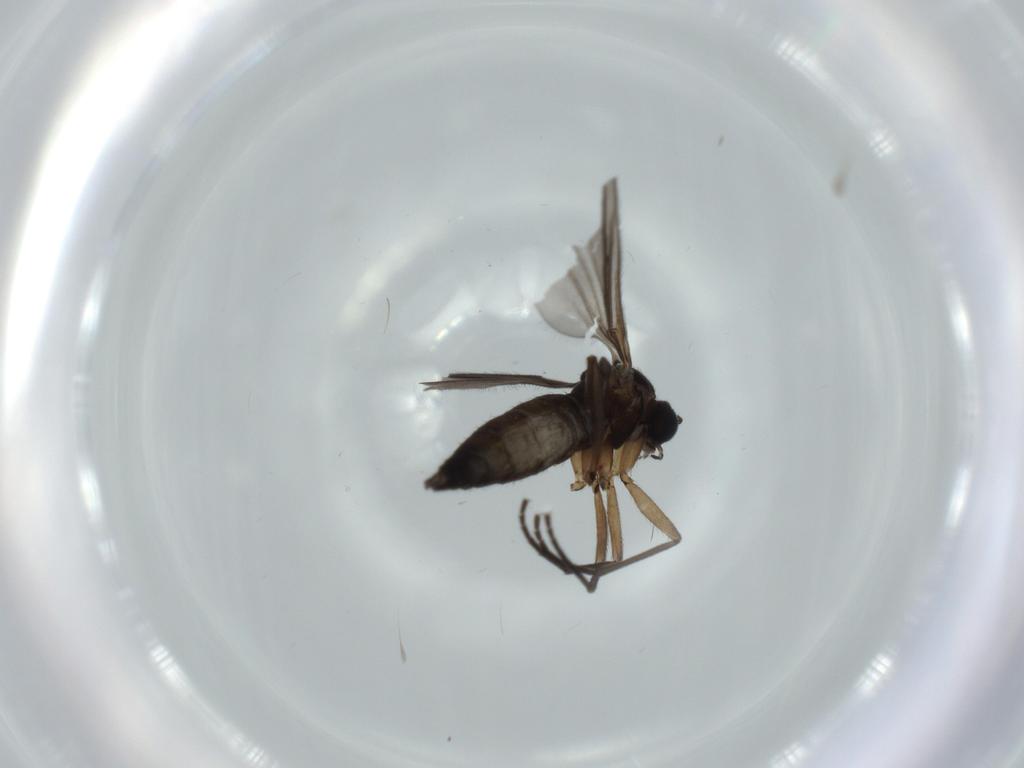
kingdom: Animalia
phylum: Arthropoda
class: Insecta
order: Diptera
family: Sciaridae
